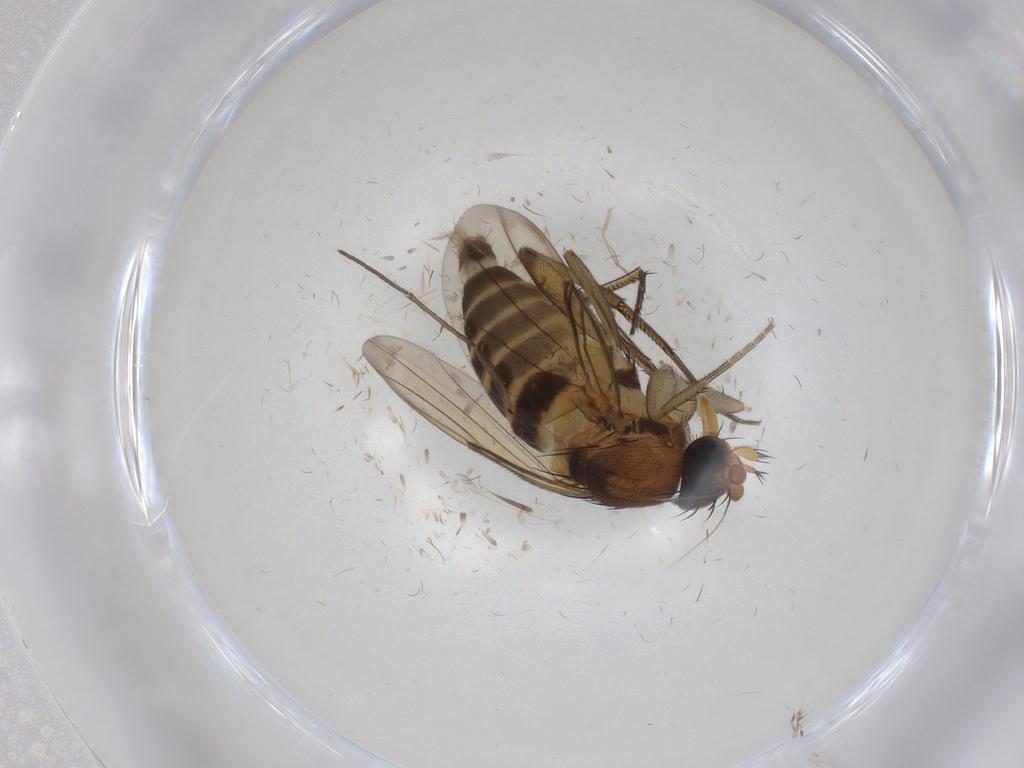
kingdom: Animalia
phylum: Arthropoda
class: Insecta
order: Diptera
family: Phoridae
